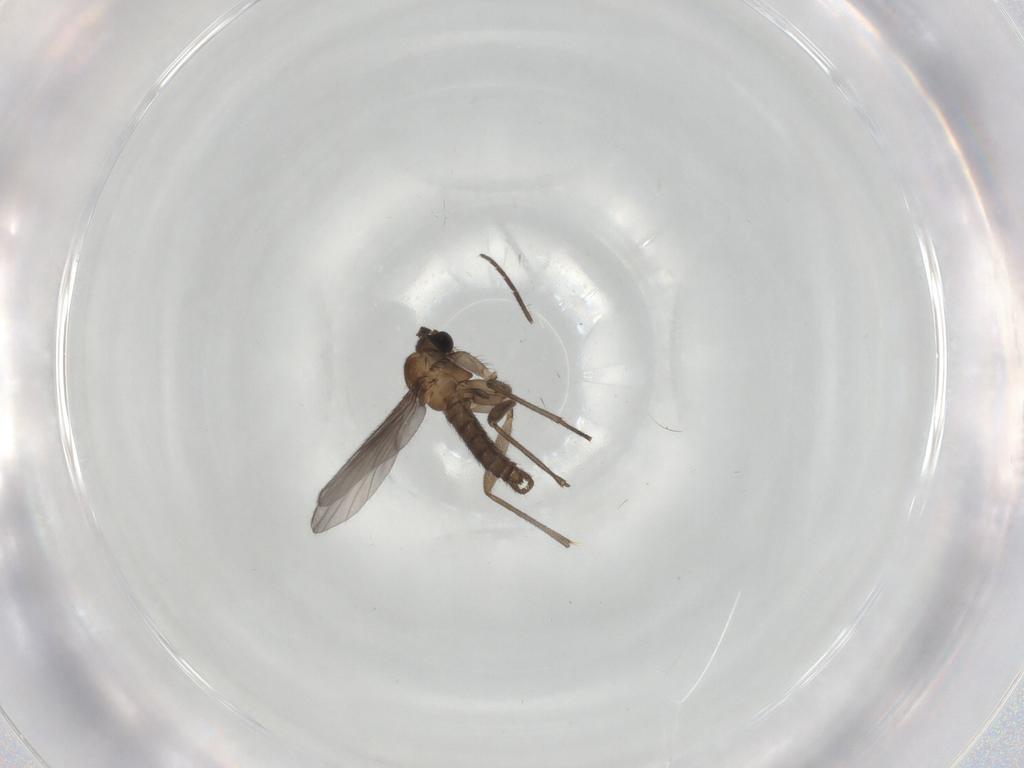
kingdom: Animalia
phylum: Arthropoda
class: Insecta
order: Diptera
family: Sciaridae
